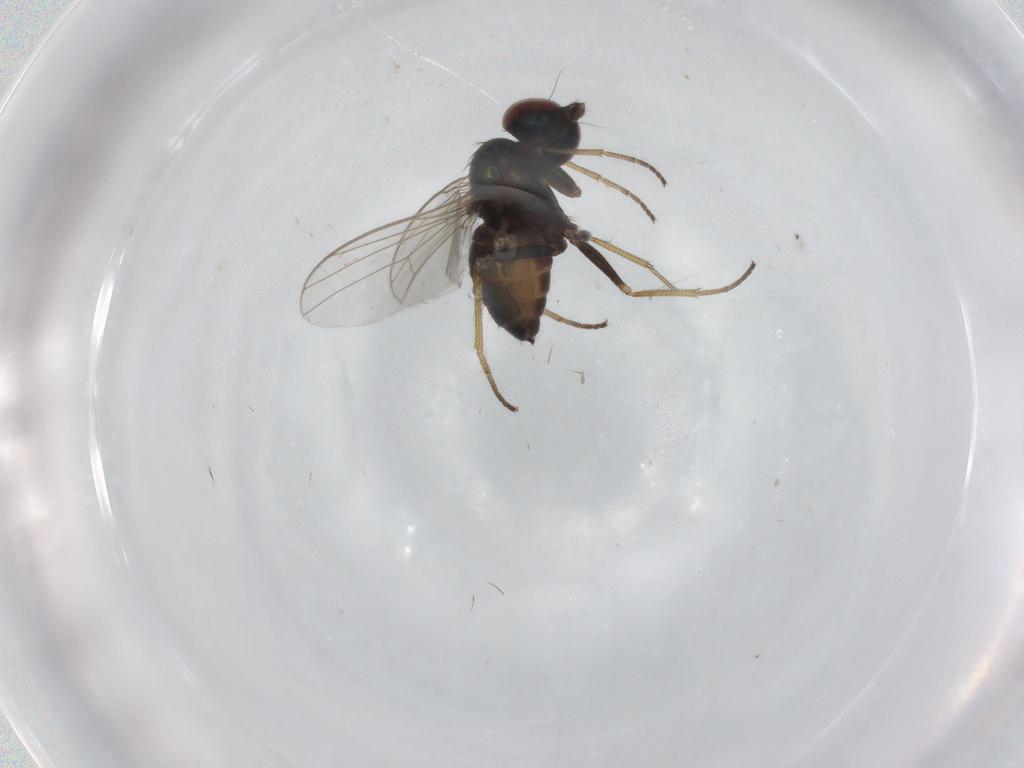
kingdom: Animalia
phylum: Arthropoda
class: Insecta
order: Diptera
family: Dolichopodidae
